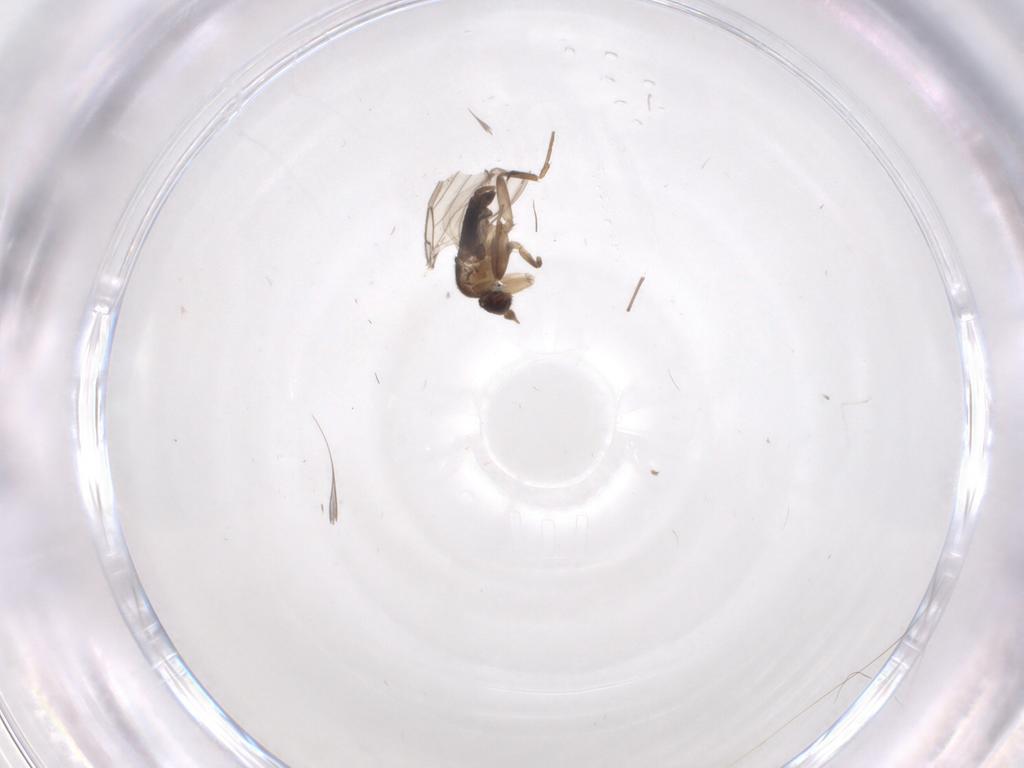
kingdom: Animalia
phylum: Arthropoda
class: Insecta
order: Diptera
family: Phoridae
